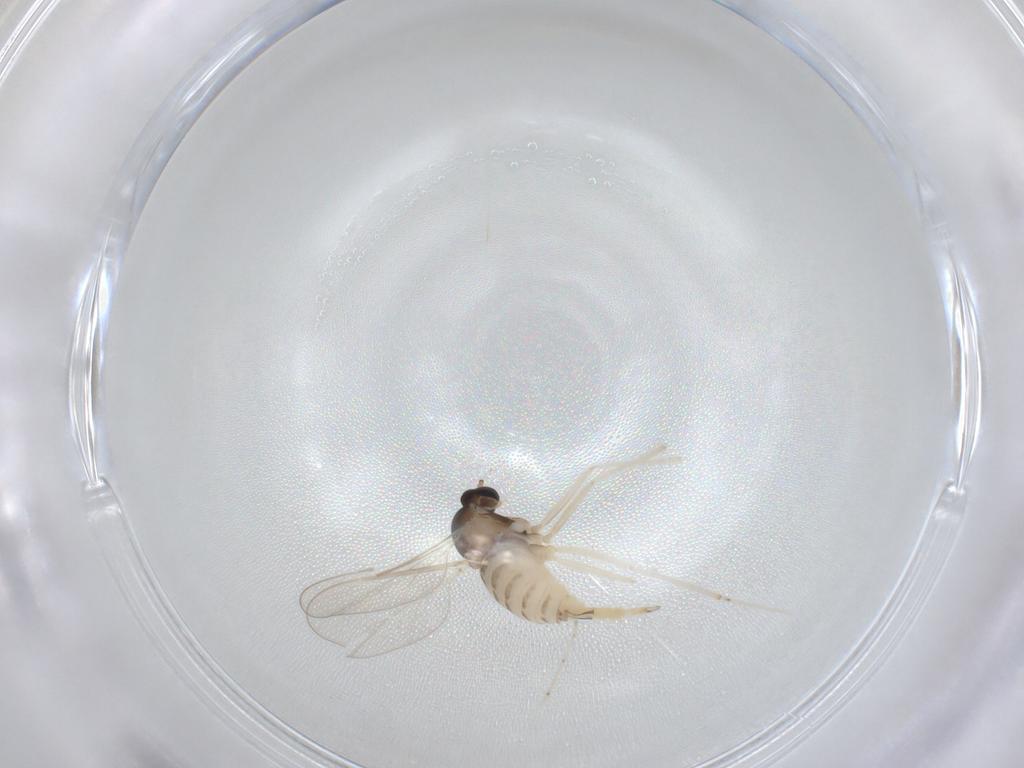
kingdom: Animalia
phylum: Arthropoda
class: Insecta
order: Diptera
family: Cecidomyiidae
